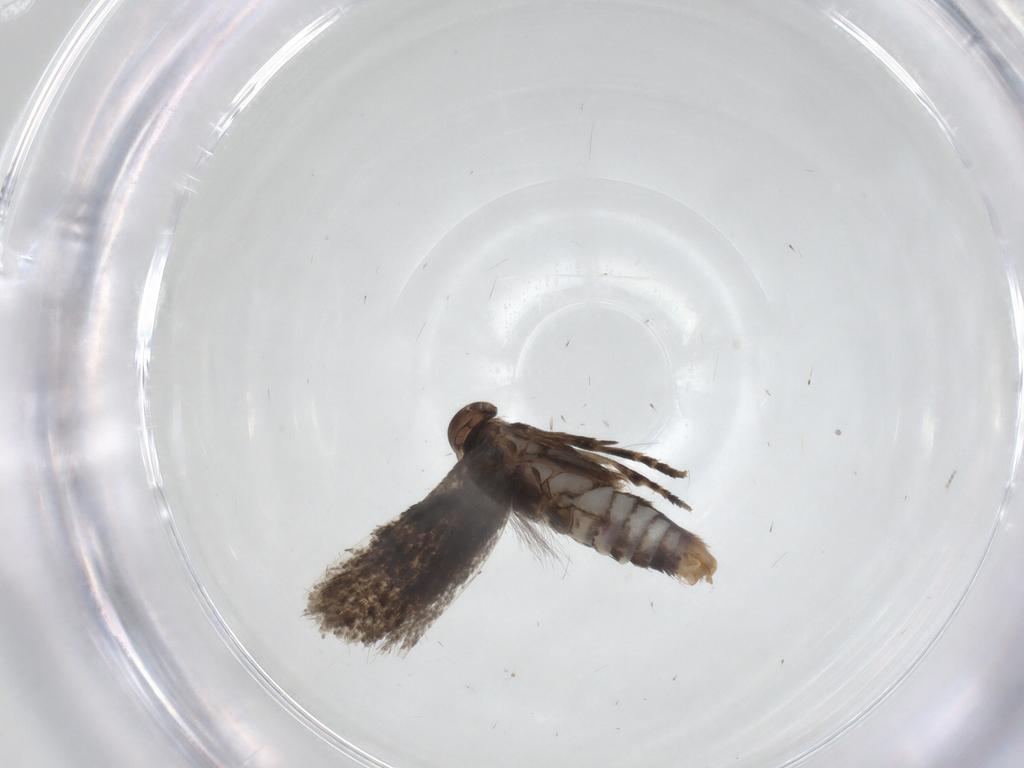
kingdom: Animalia
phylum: Arthropoda
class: Insecta
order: Lepidoptera
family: Elachistidae
